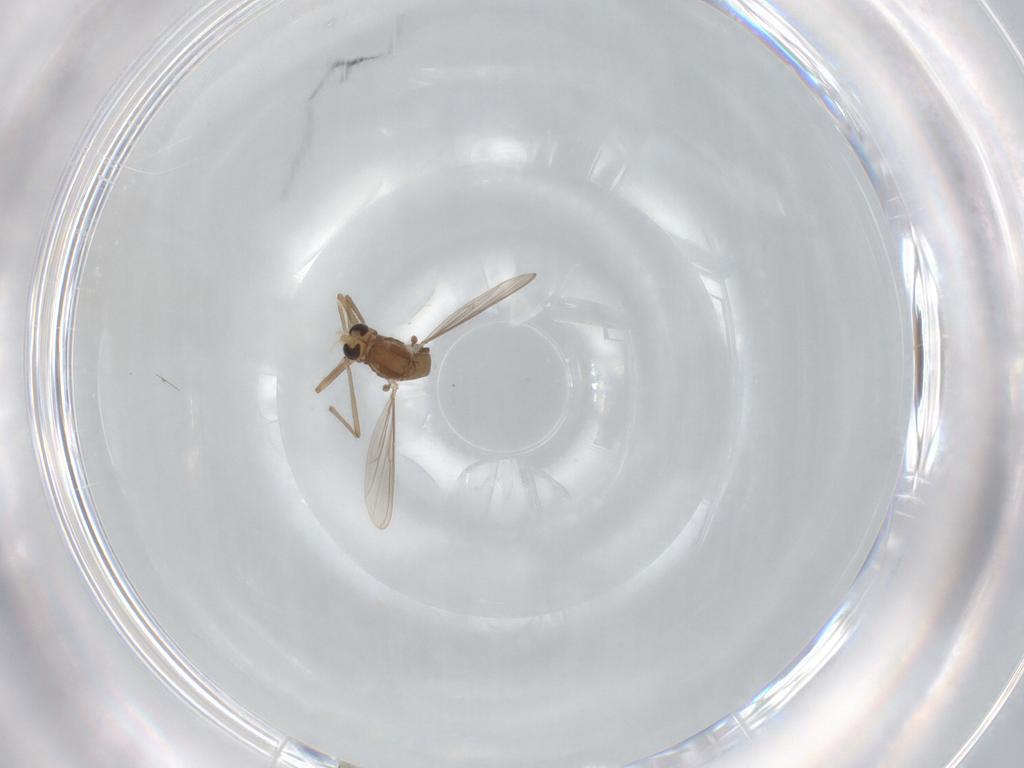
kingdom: Animalia
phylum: Arthropoda
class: Insecta
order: Diptera
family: Chironomidae
